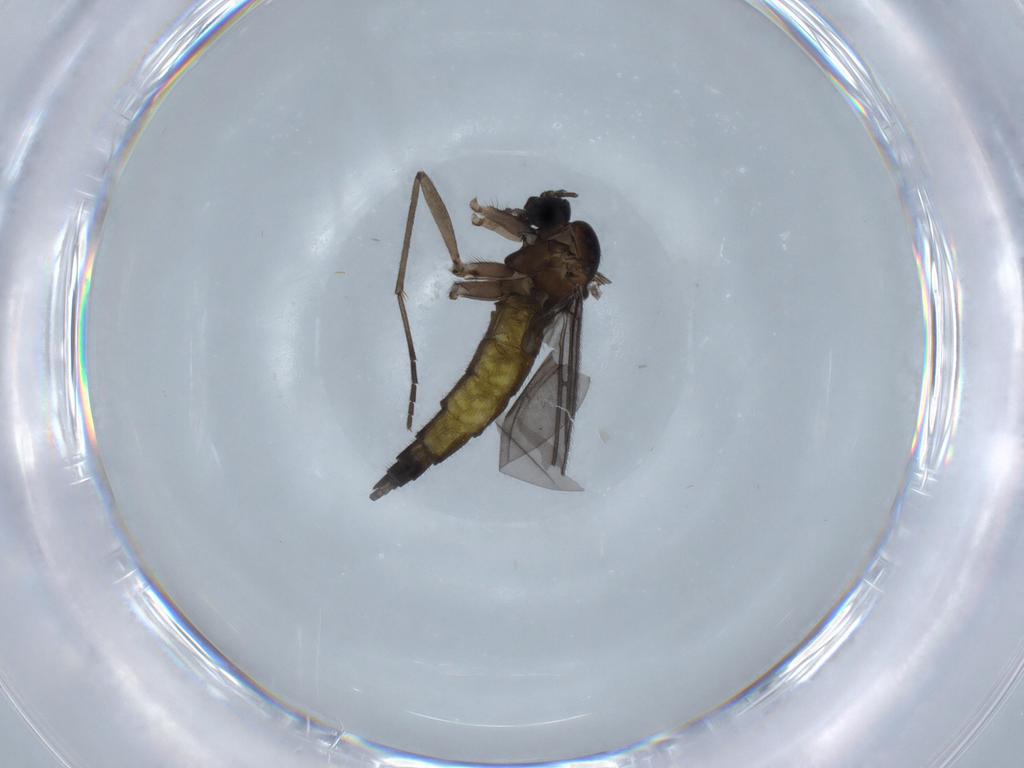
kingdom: Animalia
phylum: Arthropoda
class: Insecta
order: Diptera
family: Sciaridae
